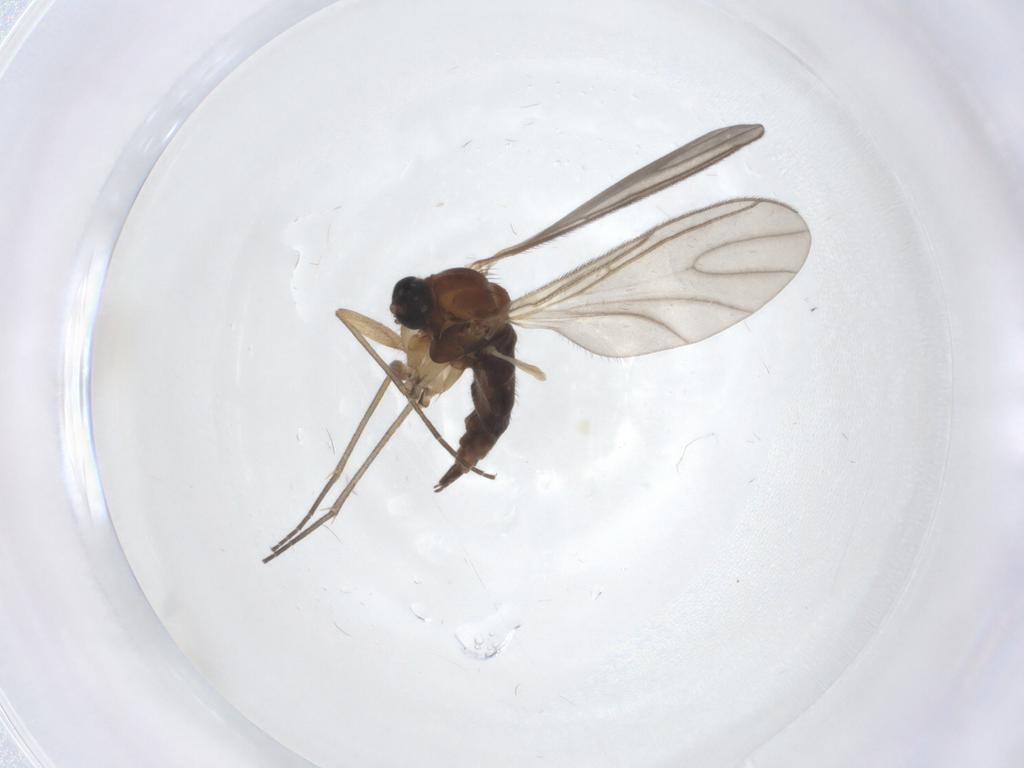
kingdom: Animalia
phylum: Arthropoda
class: Insecta
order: Diptera
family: Sciaridae
